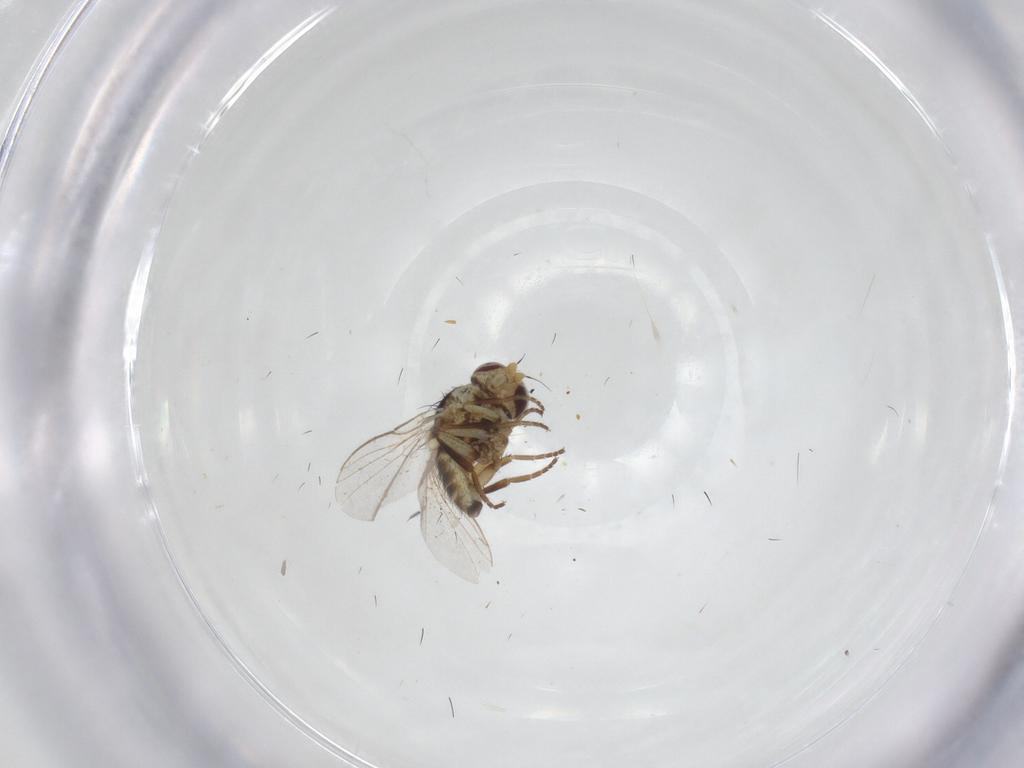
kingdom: Animalia
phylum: Arthropoda
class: Insecta
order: Diptera
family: Agromyzidae
